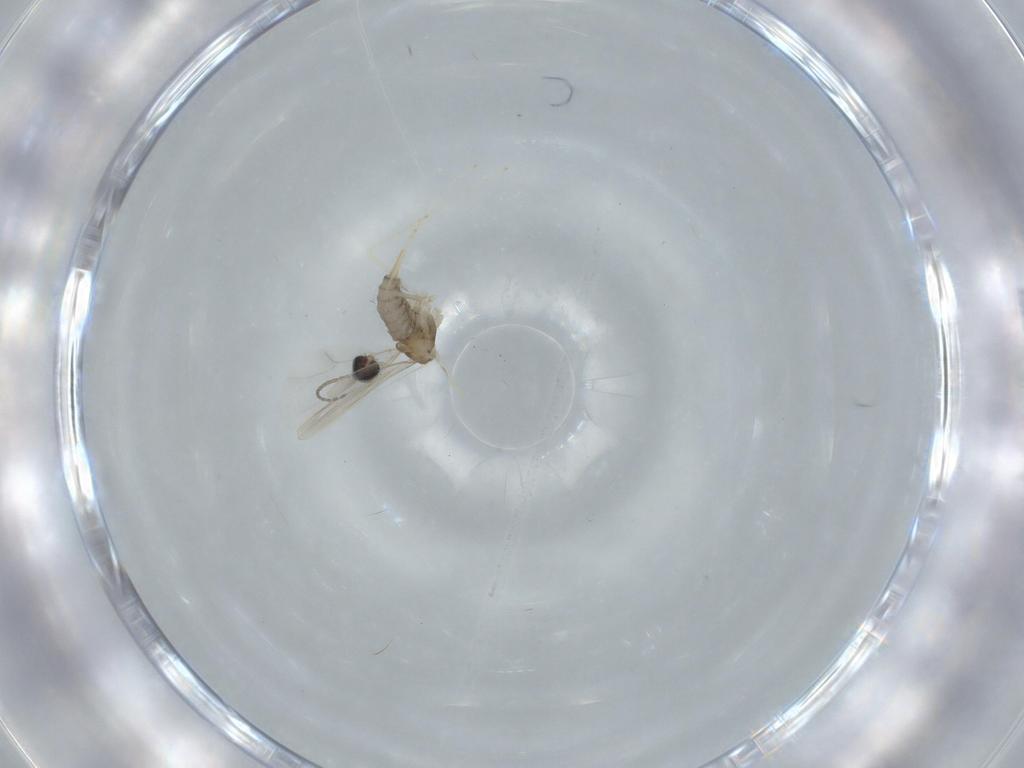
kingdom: Animalia
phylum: Arthropoda
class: Insecta
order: Diptera
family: Cecidomyiidae
